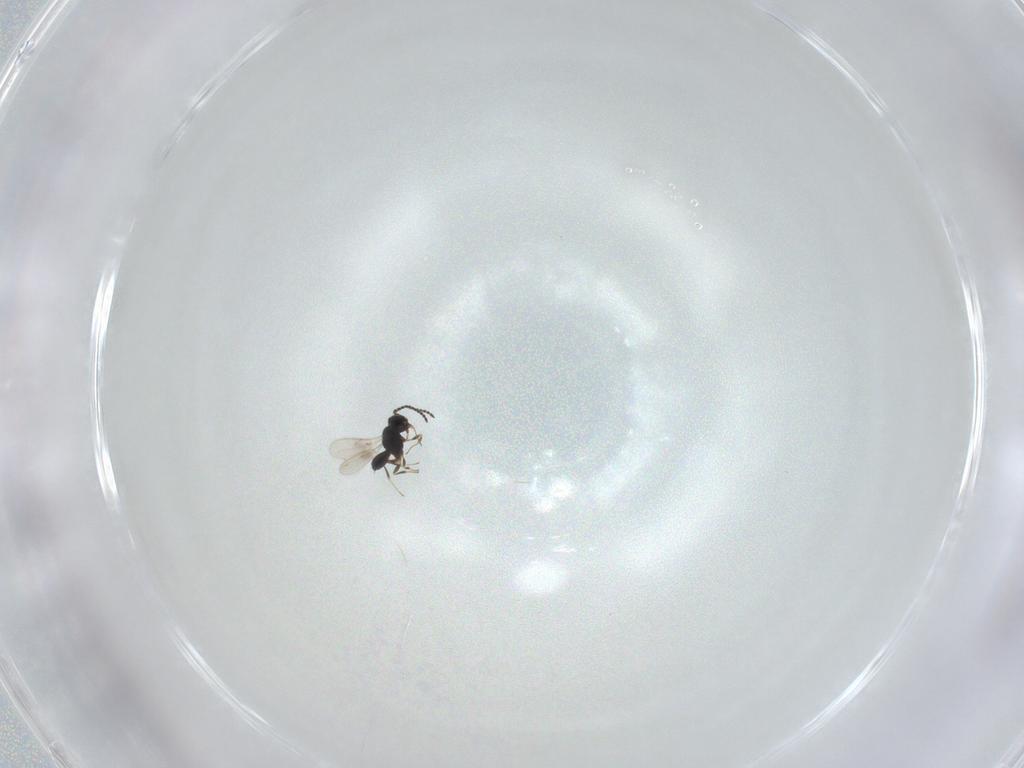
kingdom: Animalia
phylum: Arthropoda
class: Insecta
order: Hymenoptera
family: Scelionidae
